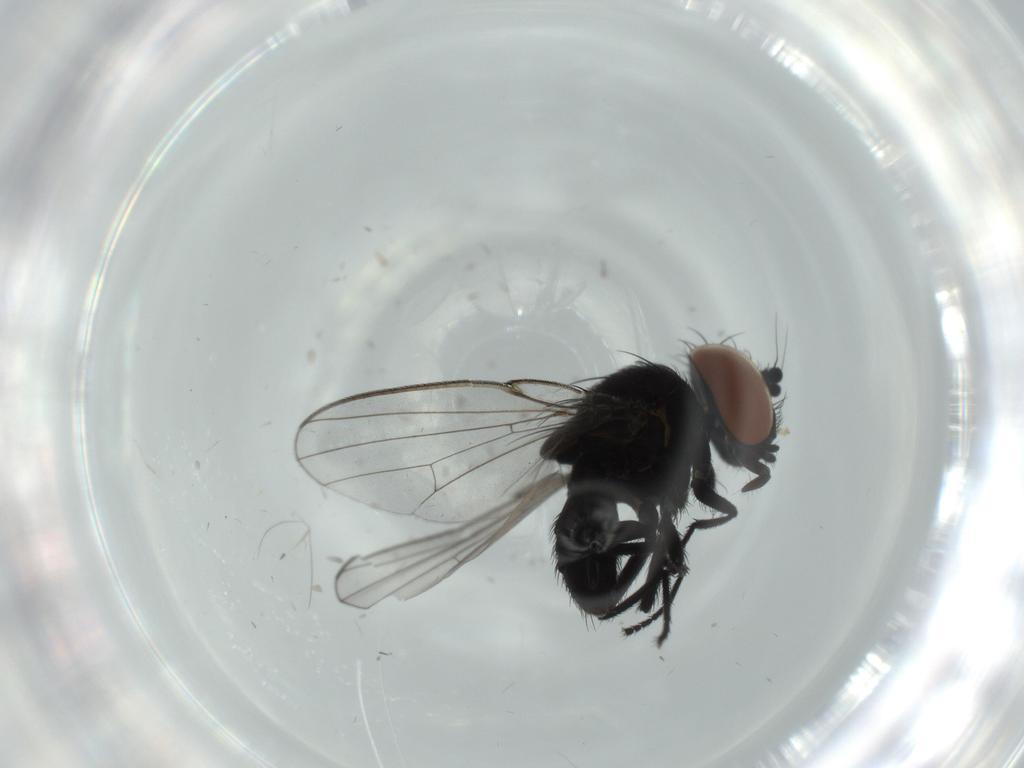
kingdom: Animalia
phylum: Arthropoda
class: Insecta
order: Diptera
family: Milichiidae
